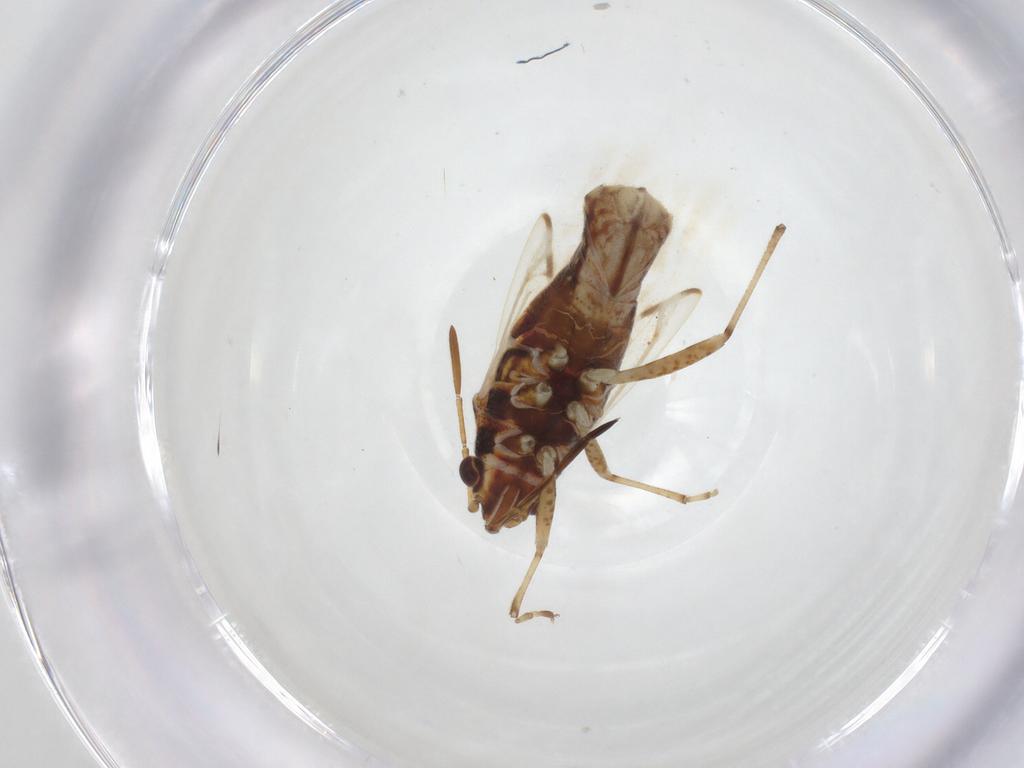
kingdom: Animalia
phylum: Arthropoda
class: Insecta
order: Hemiptera
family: Lygaeidae
